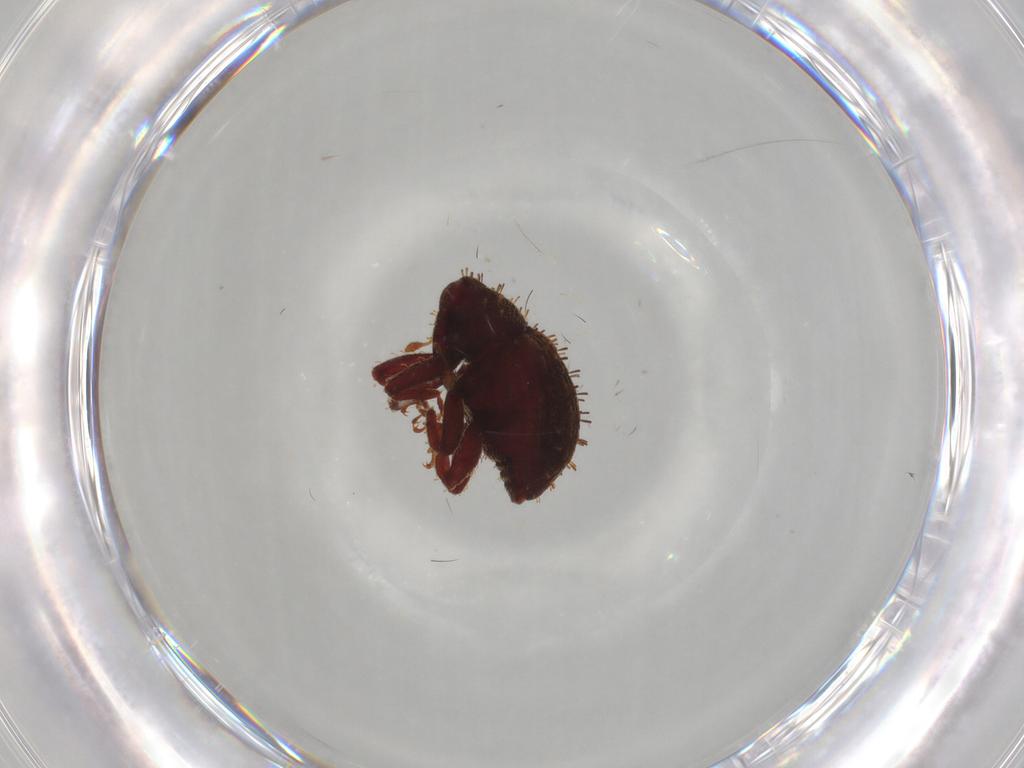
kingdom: Animalia
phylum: Arthropoda
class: Insecta
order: Coleoptera
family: Curculionidae
